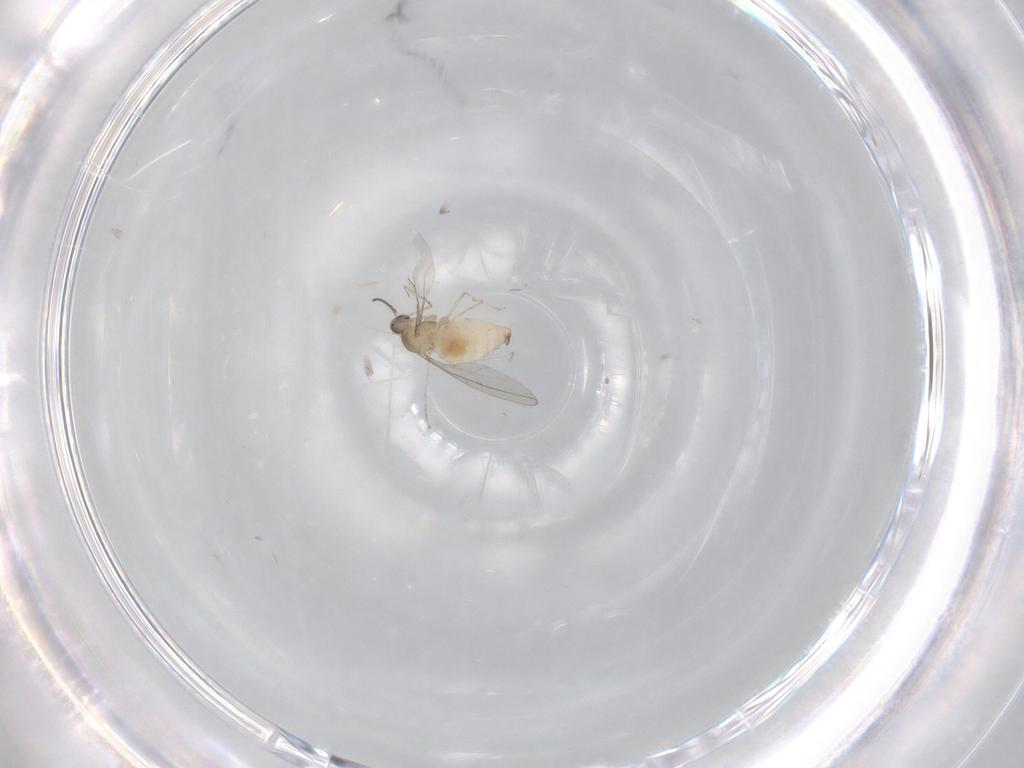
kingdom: Animalia
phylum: Arthropoda
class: Insecta
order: Diptera
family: Cecidomyiidae
